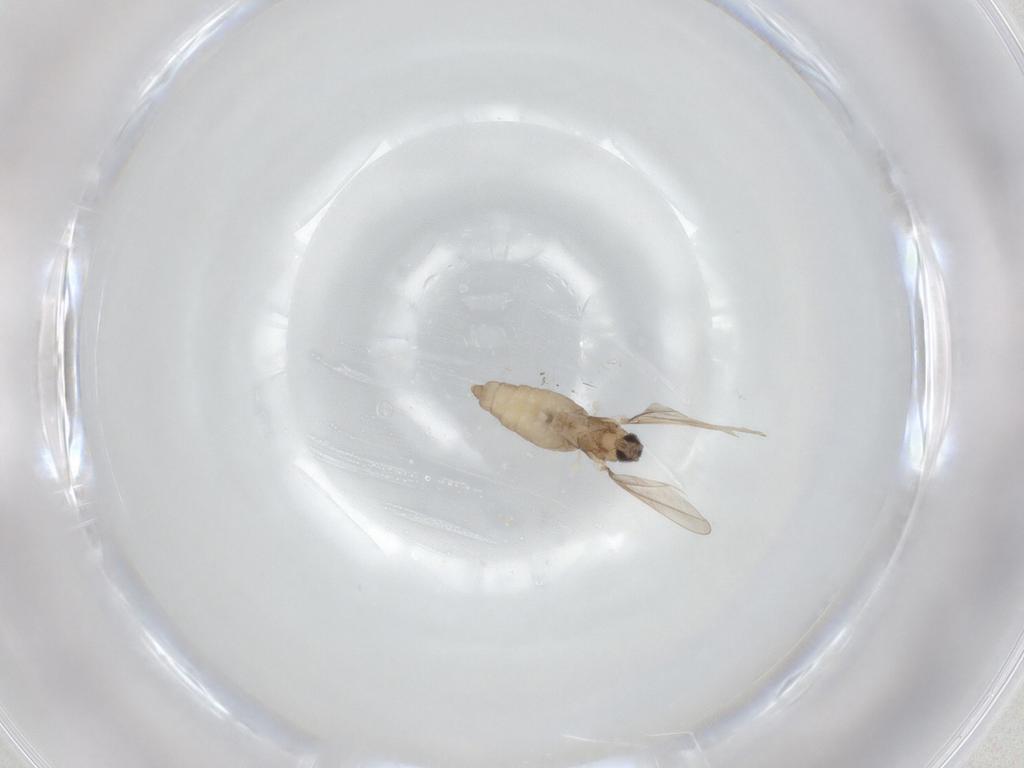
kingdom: Animalia
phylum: Arthropoda
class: Insecta
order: Diptera
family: Cecidomyiidae
